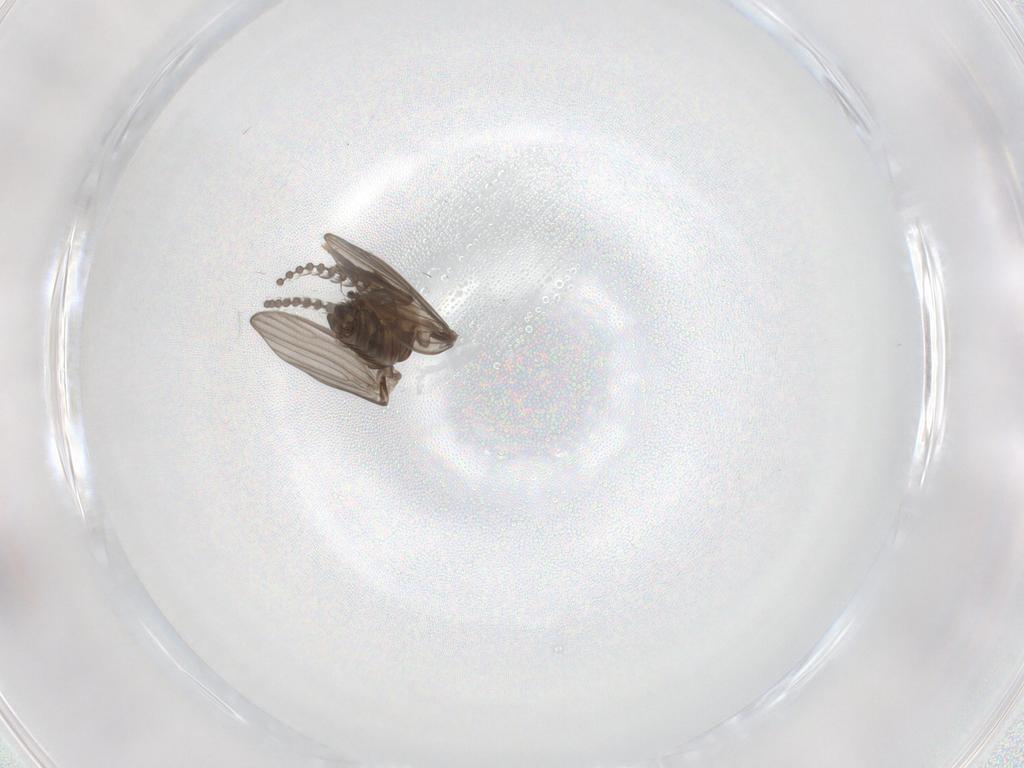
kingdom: Animalia
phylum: Arthropoda
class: Insecta
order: Diptera
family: Psychodidae
